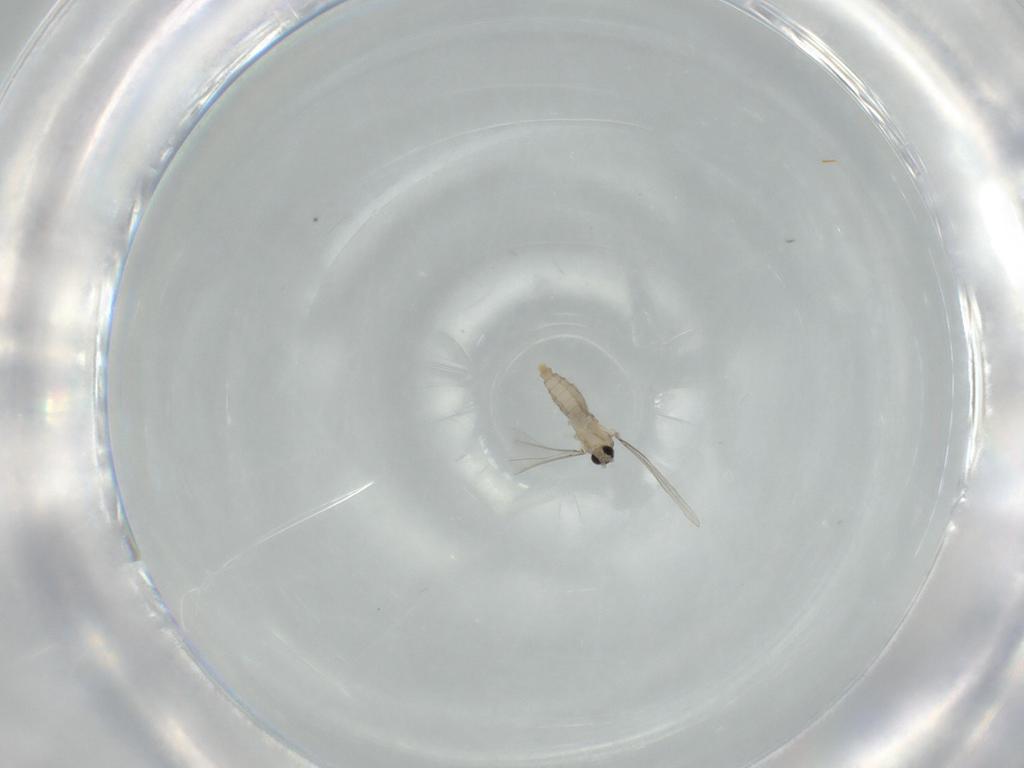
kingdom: Animalia
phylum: Arthropoda
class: Insecta
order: Diptera
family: Cecidomyiidae
